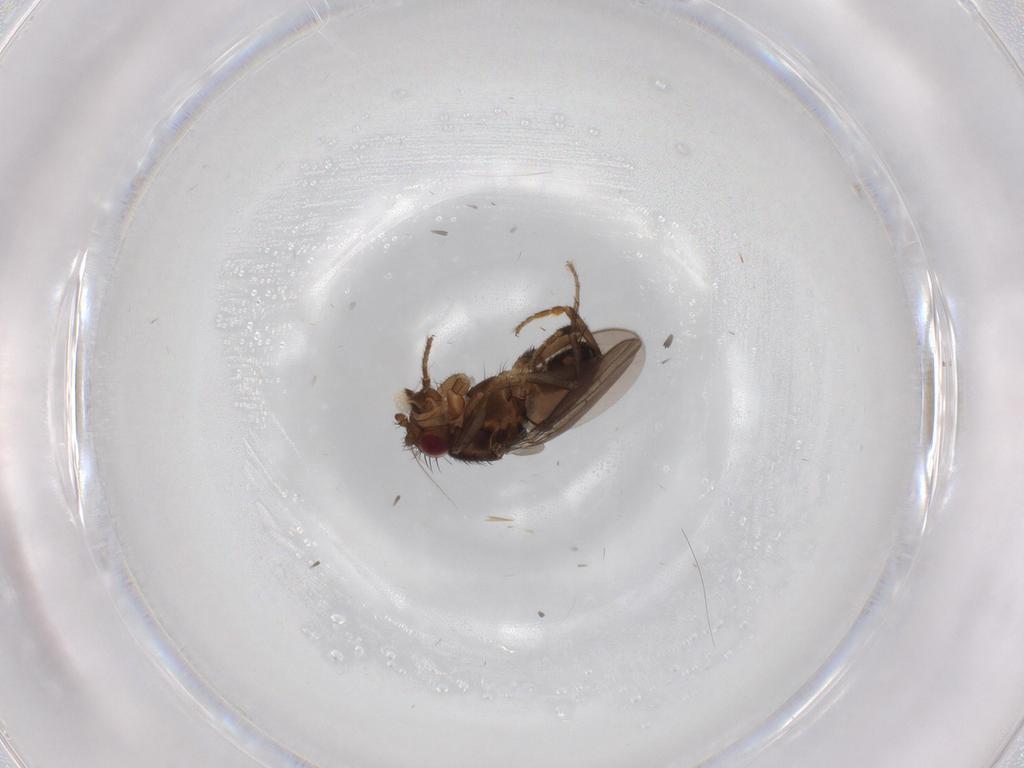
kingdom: Animalia
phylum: Arthropoda
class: Insecta
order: Diptera
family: Sphaeroceridae
